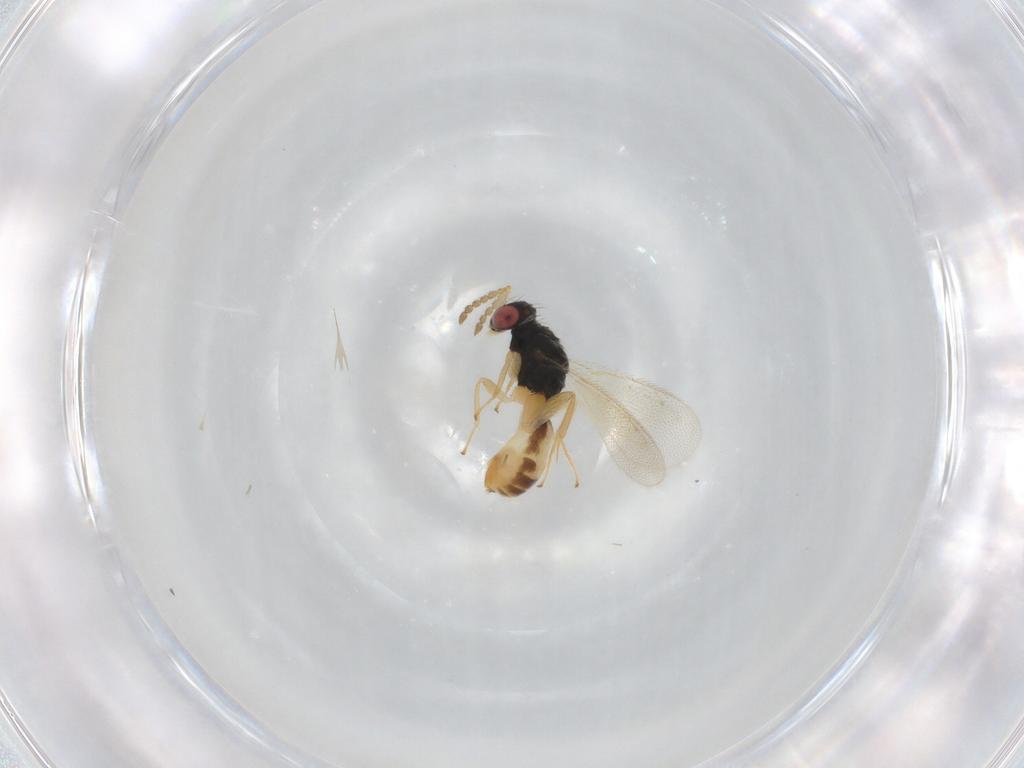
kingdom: Animalia
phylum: Arthropoda
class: Insecta
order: Hymenoptera
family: Eulophidae
